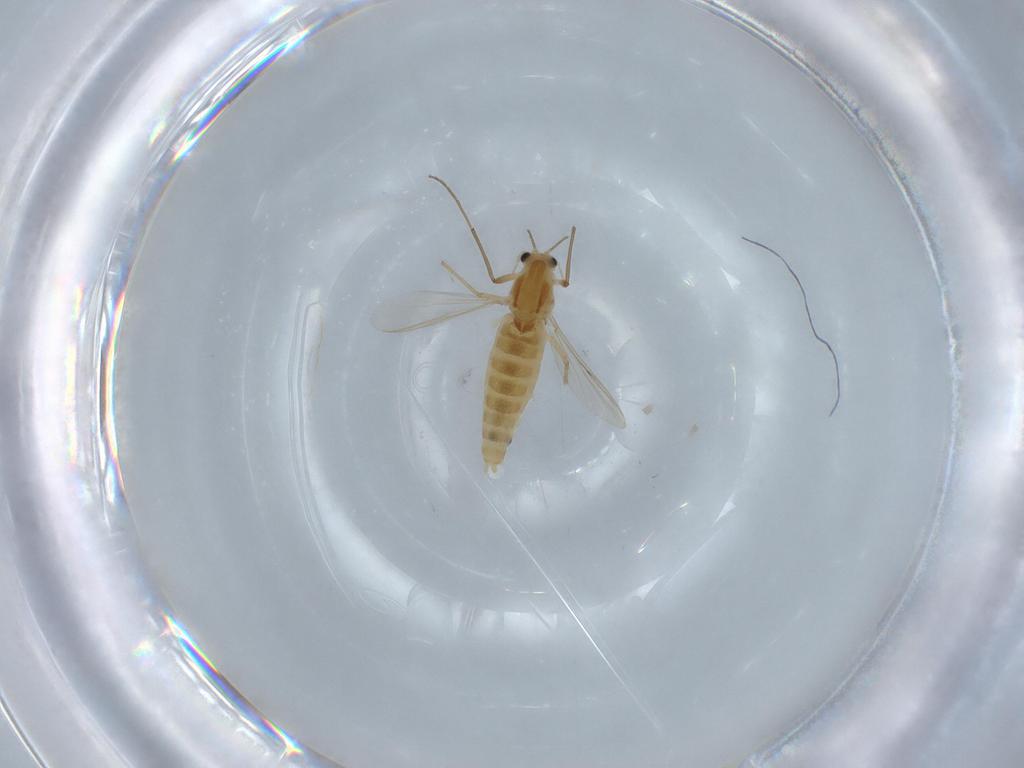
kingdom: Animalia
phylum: Arthropoda
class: Insecta
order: Diptera
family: Chironomidae
